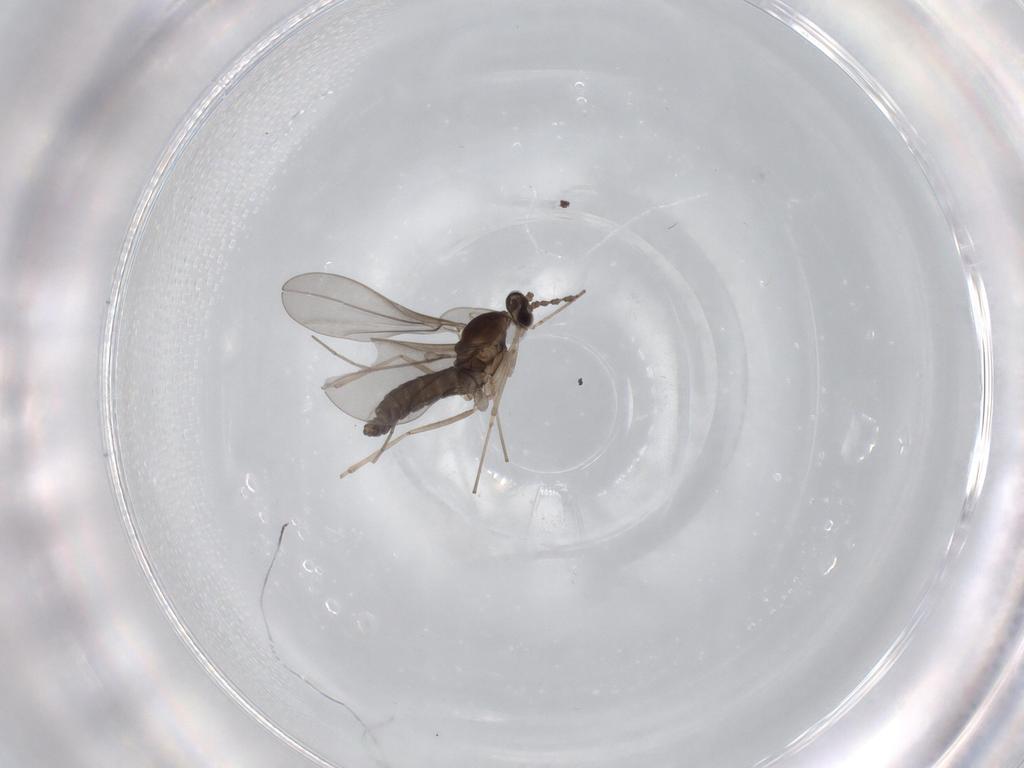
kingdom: Animalia
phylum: Arthropoda
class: Insecta
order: Diptera
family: Cecidomyiidae
